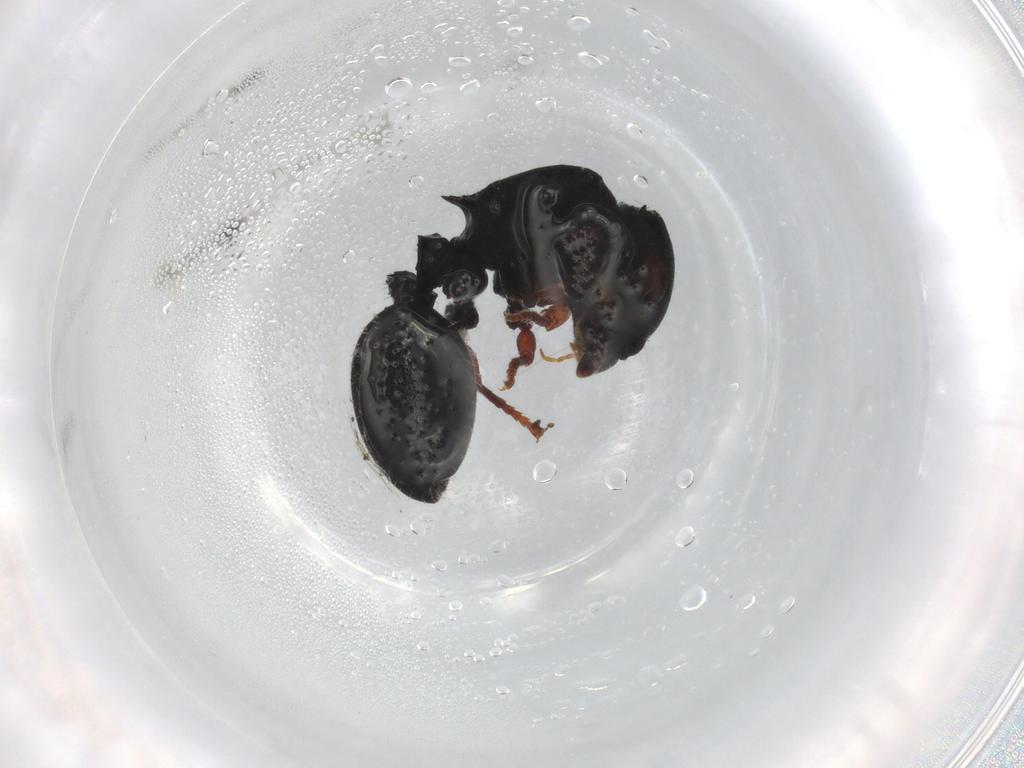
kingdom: Animalia
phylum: Arthropoda
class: Insecta
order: Hymenoptera
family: Formicidae
